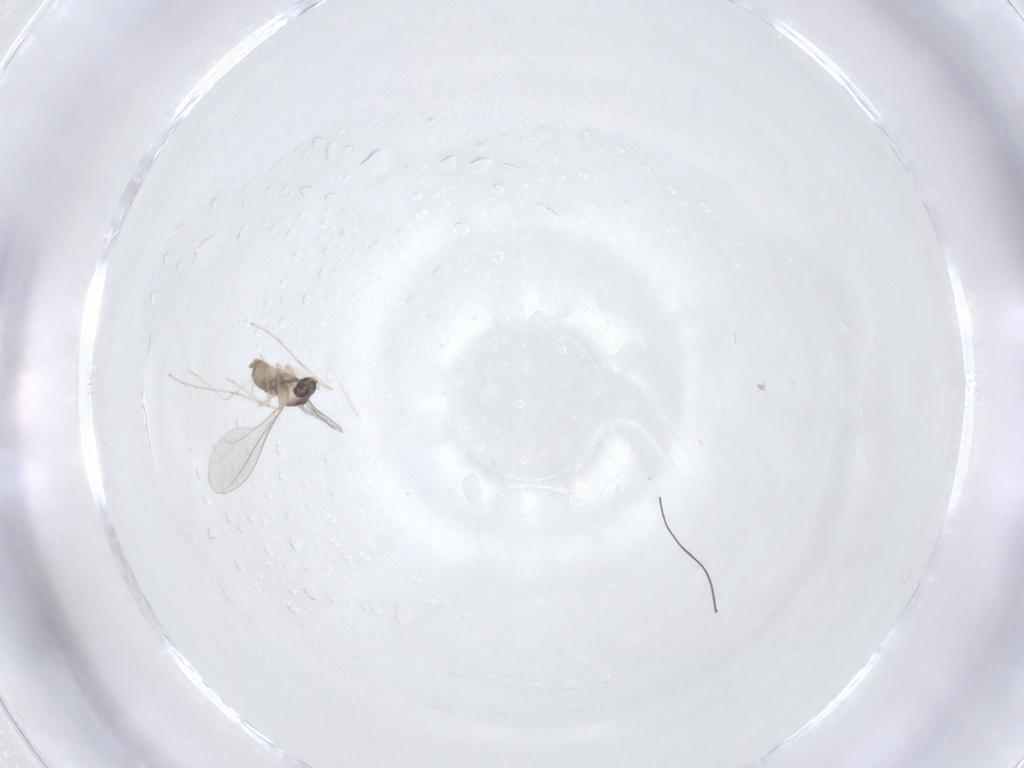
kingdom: Animalia
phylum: Arthropoda
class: Insecta
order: Diptera
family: Cecidomyiidae
